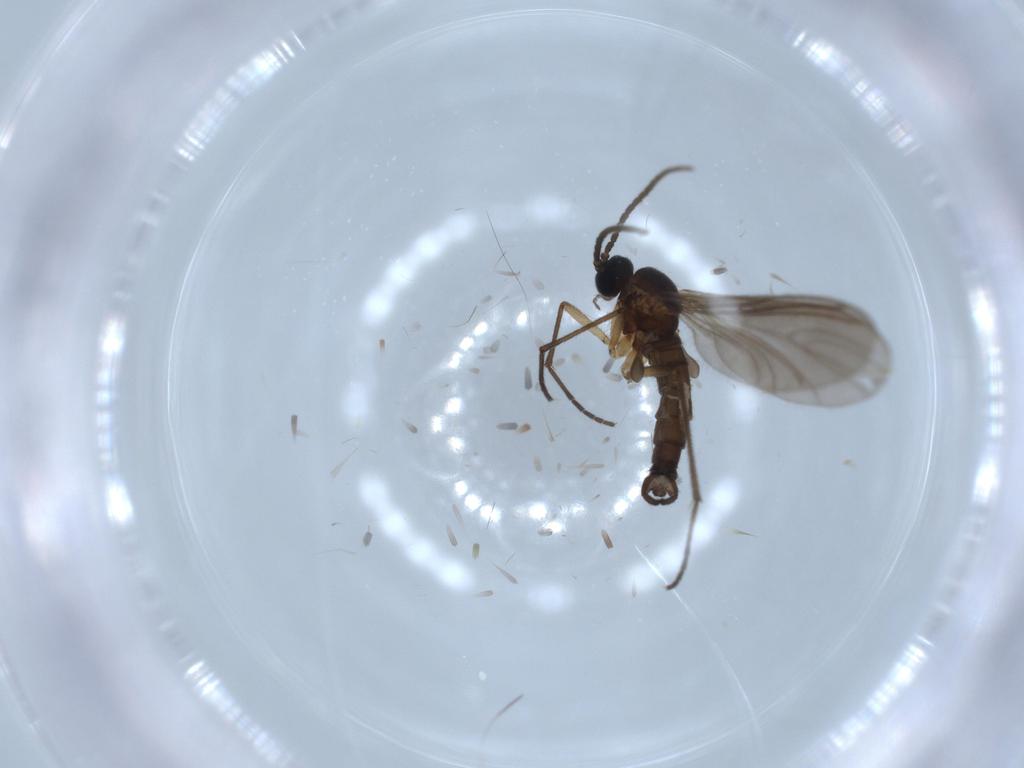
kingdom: Animalia
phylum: Arthropoda
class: Insecta
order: Diptera
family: Sciaridae
